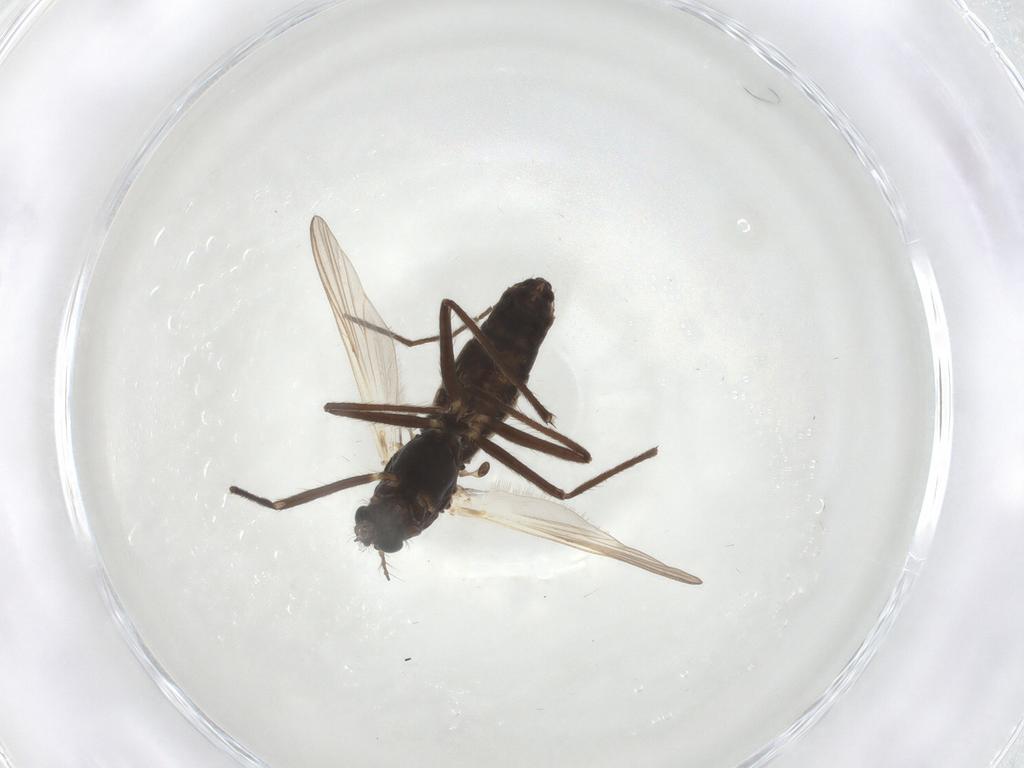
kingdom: Animalia
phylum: Arthropoda
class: Insecta
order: Diptera
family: Chironomidae
